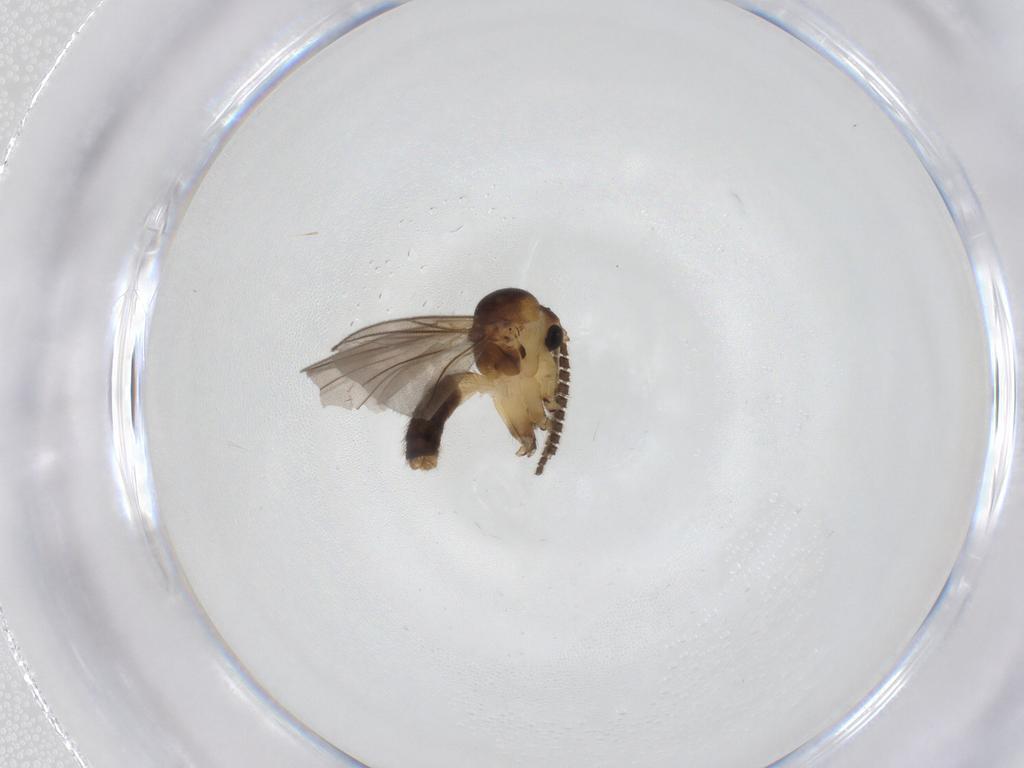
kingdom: Animalia
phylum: Arthropoda
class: Insecta
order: Diptera
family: Mycetophilidae
